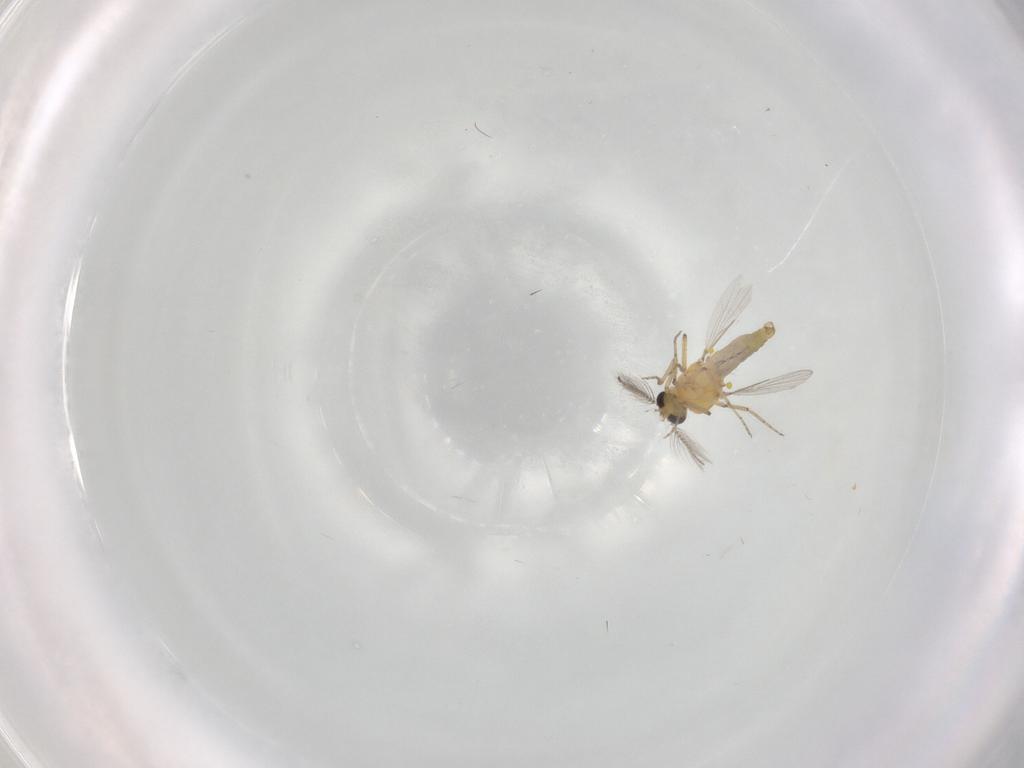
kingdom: Animalia
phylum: Arthropoda
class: Insecta
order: Diptera
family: Ceratopogonidae
